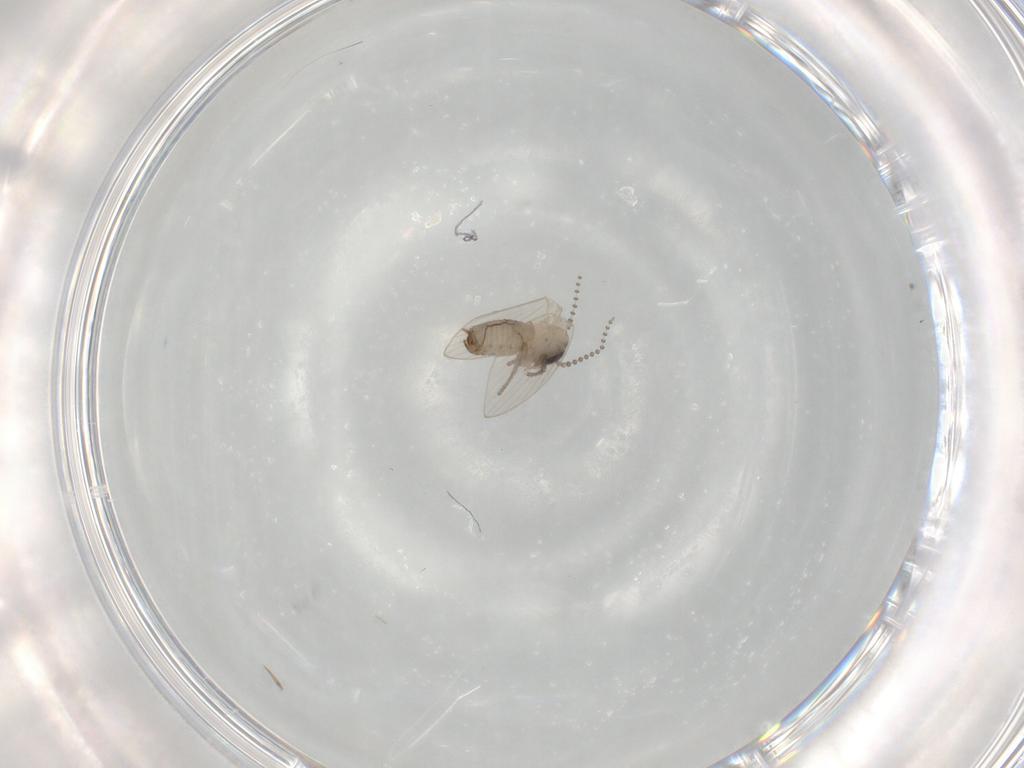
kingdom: Animalia
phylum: Arthropoda
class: Insecta
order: Diptera
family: Psychodidae
